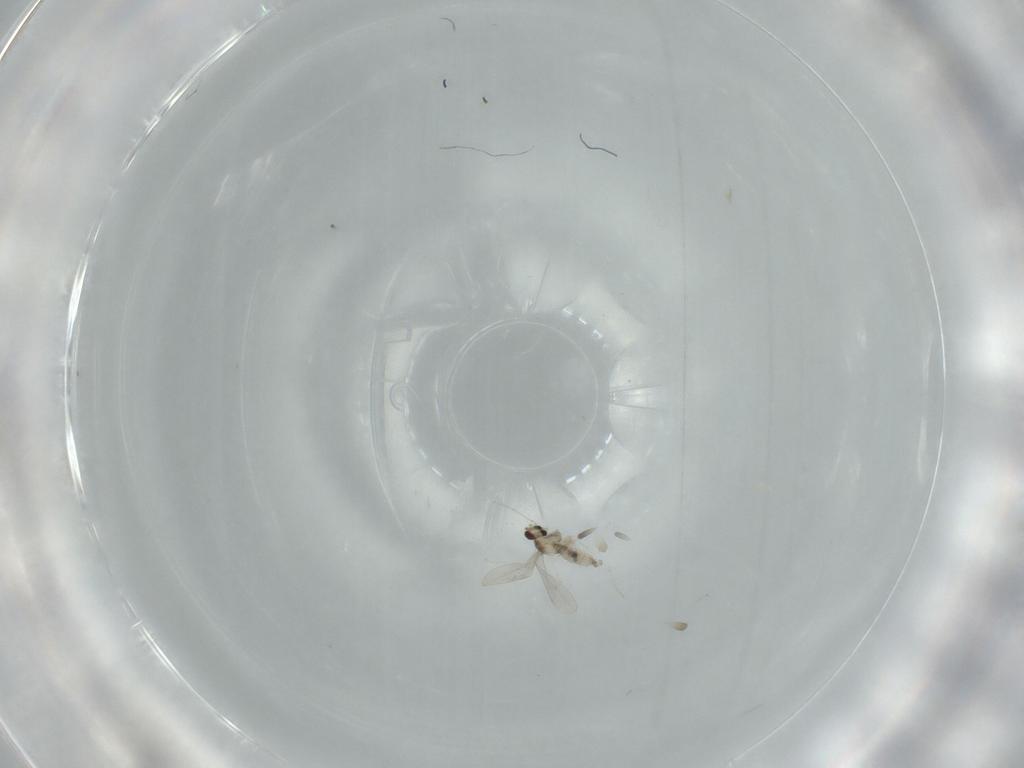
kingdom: Animalia
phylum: Arthropoda
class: Insecta
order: Diptera
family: Cecidomyiidae
